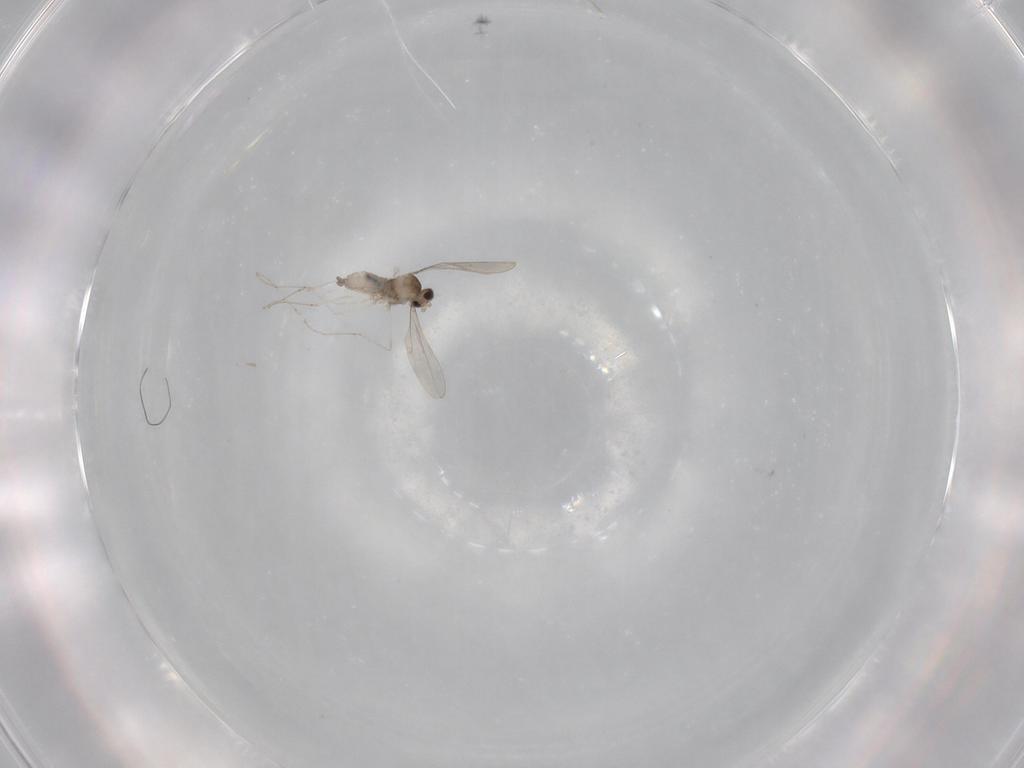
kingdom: Animalia
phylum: Arthropoda
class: Insecta
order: Diptera
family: Cecidomyiidae
